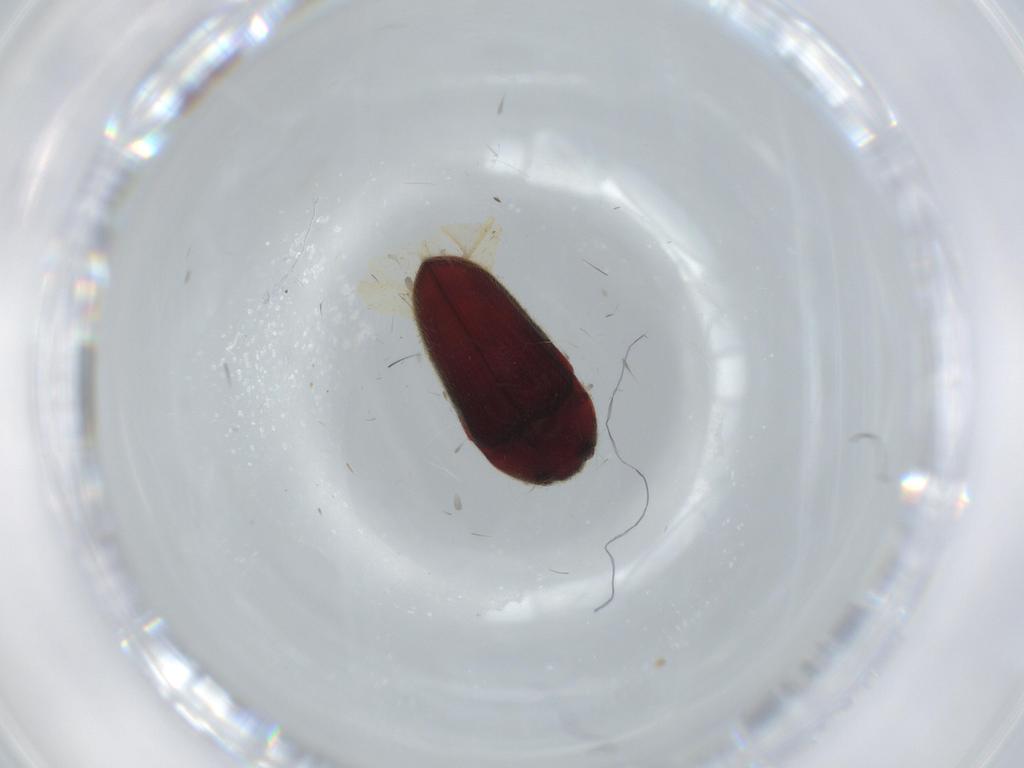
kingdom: Animalia
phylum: Arthropoda
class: Insecta
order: Coleoptera
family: Throscidae
